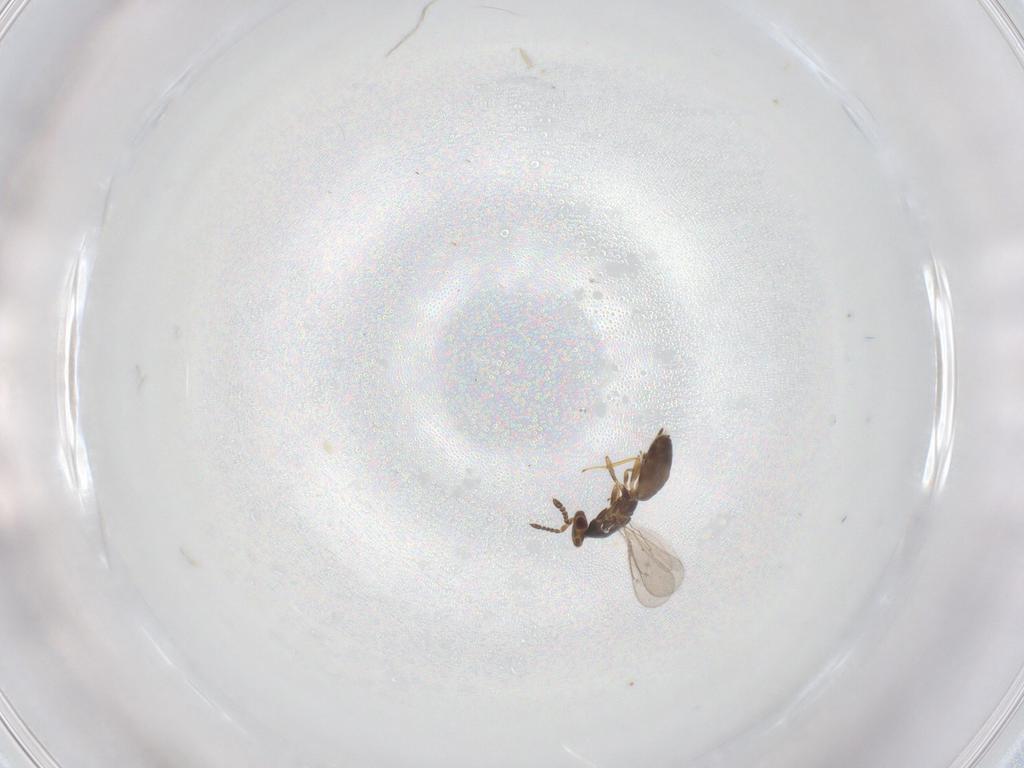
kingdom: Animalia
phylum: Arthropoda
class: Insecta
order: Hymenoptera
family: Eulophidae
